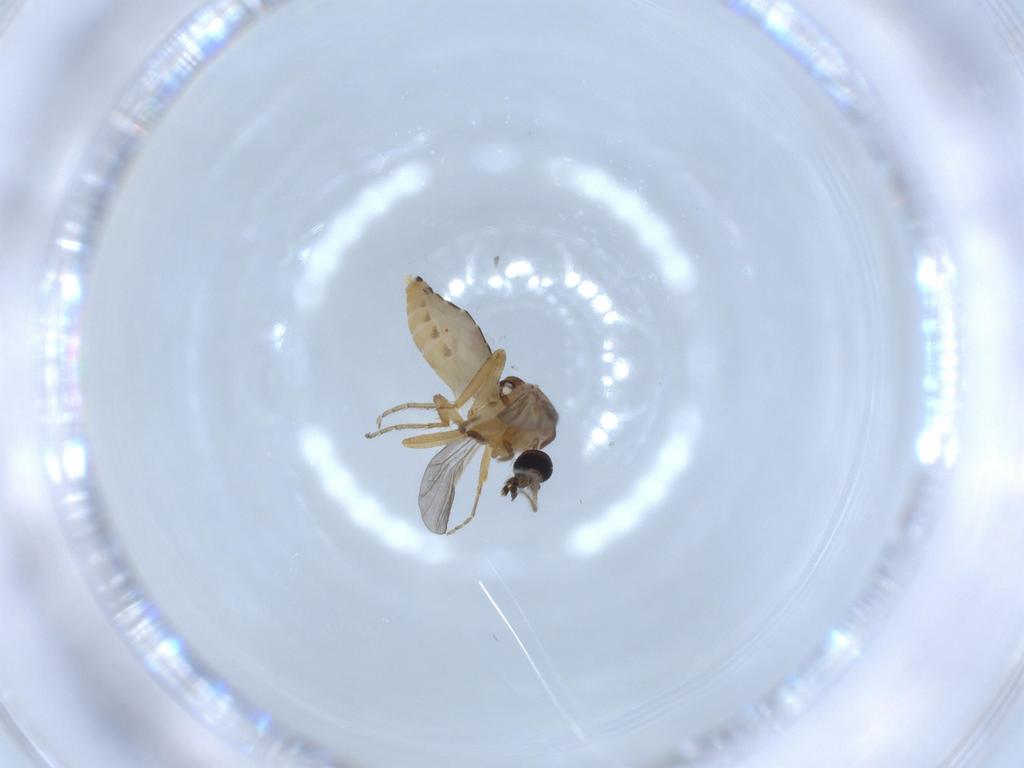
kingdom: Animalia
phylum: Arthropoda
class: Insecta
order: Diptera
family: Sciaridae
